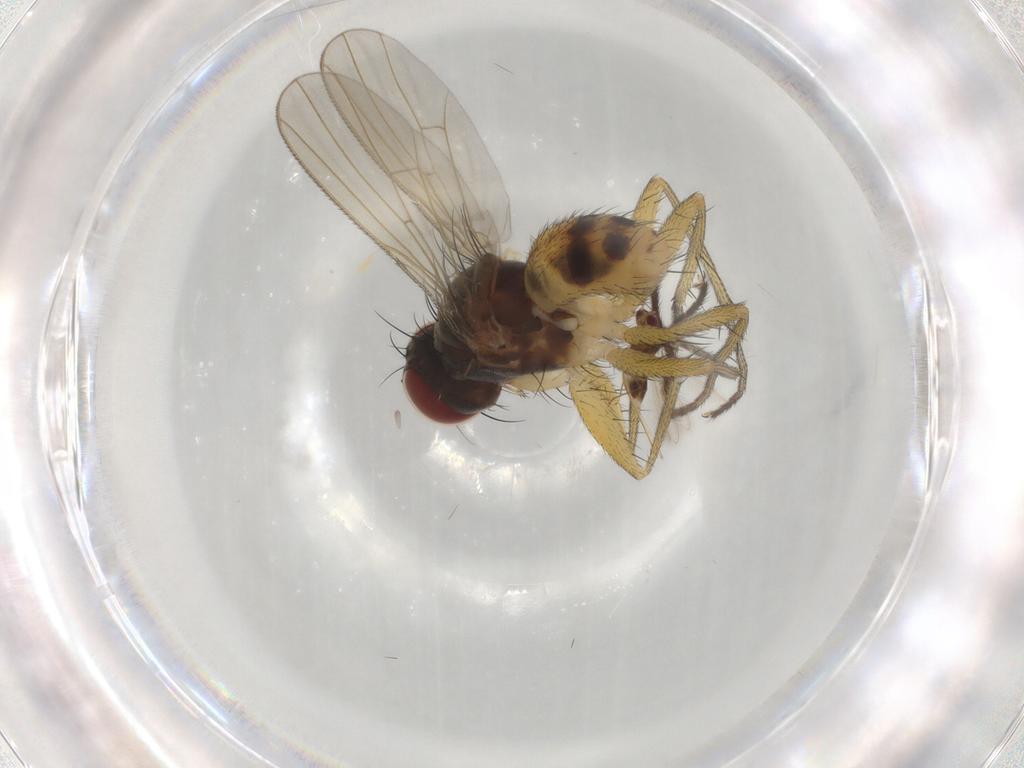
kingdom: Animalia
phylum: Arthropoda
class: Insecta
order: Diptera
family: Muscidae
